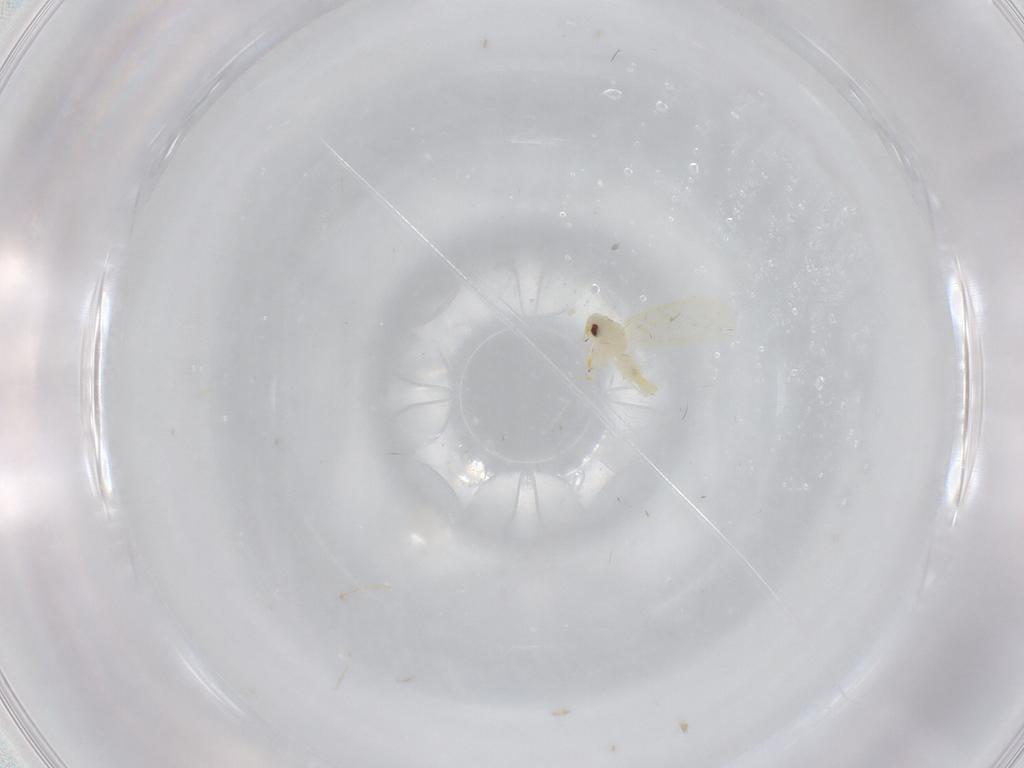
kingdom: Animalia
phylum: Arthropoda
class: Insecta
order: Hemiptera
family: Aleyrodidae
